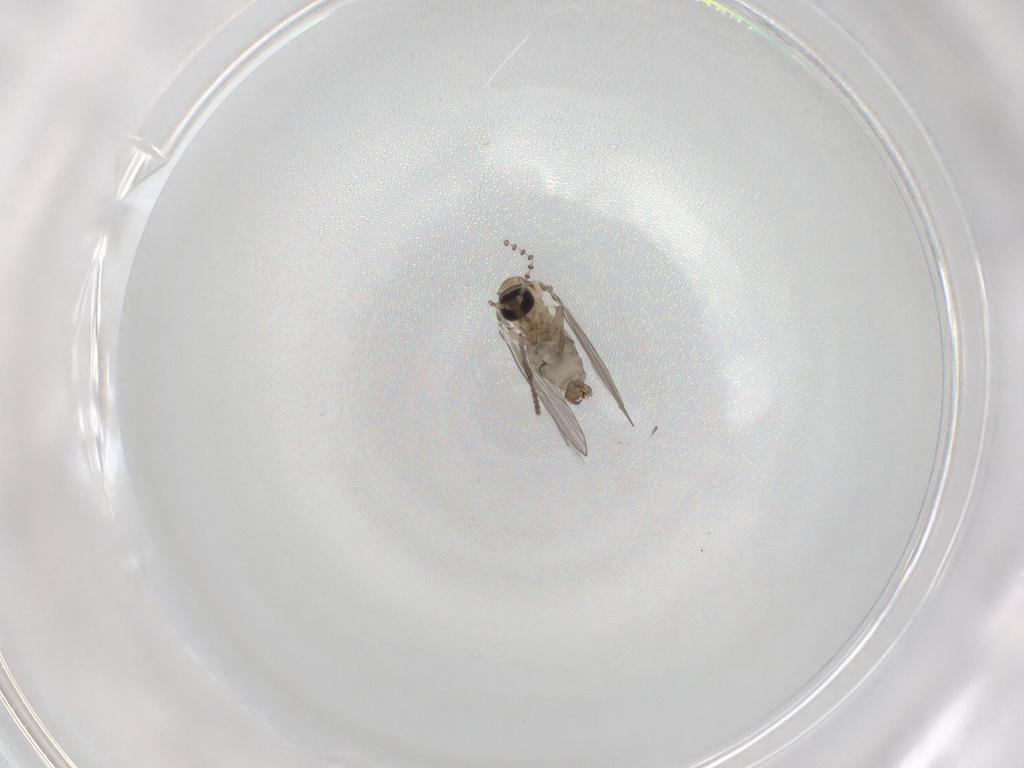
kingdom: Animalia
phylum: Arthropoda
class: Insecta
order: Diptera
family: Psychodidae
